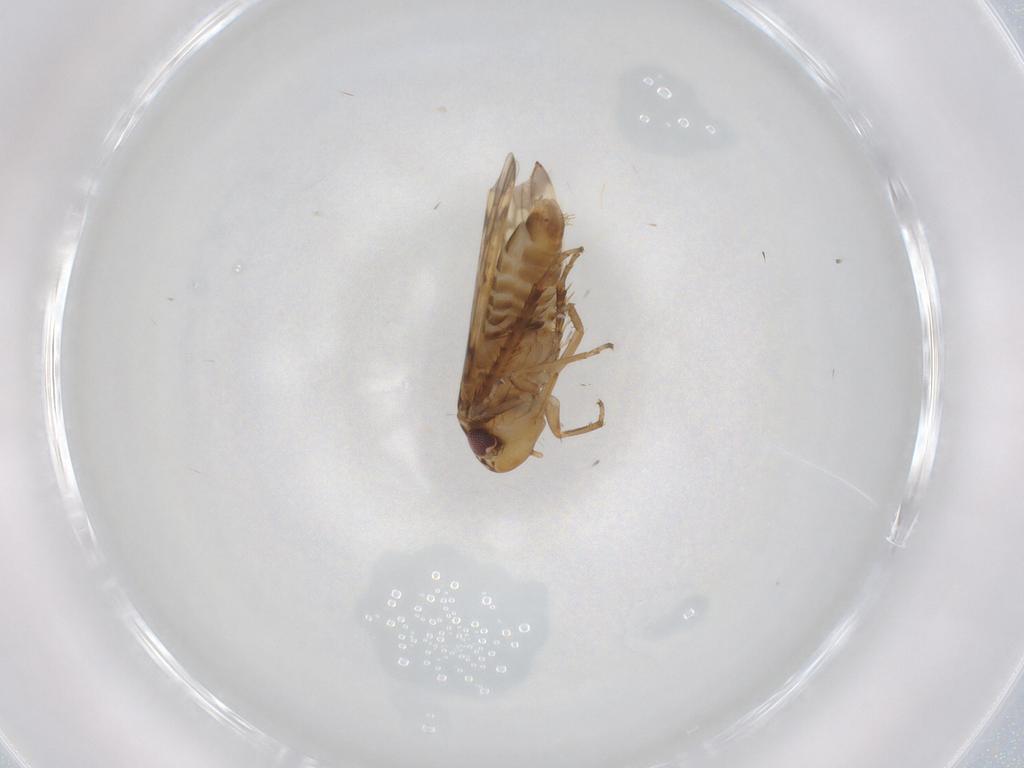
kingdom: Animalia
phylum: Arthropoda
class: Insecta
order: Hemiptera
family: Cicadellidae
